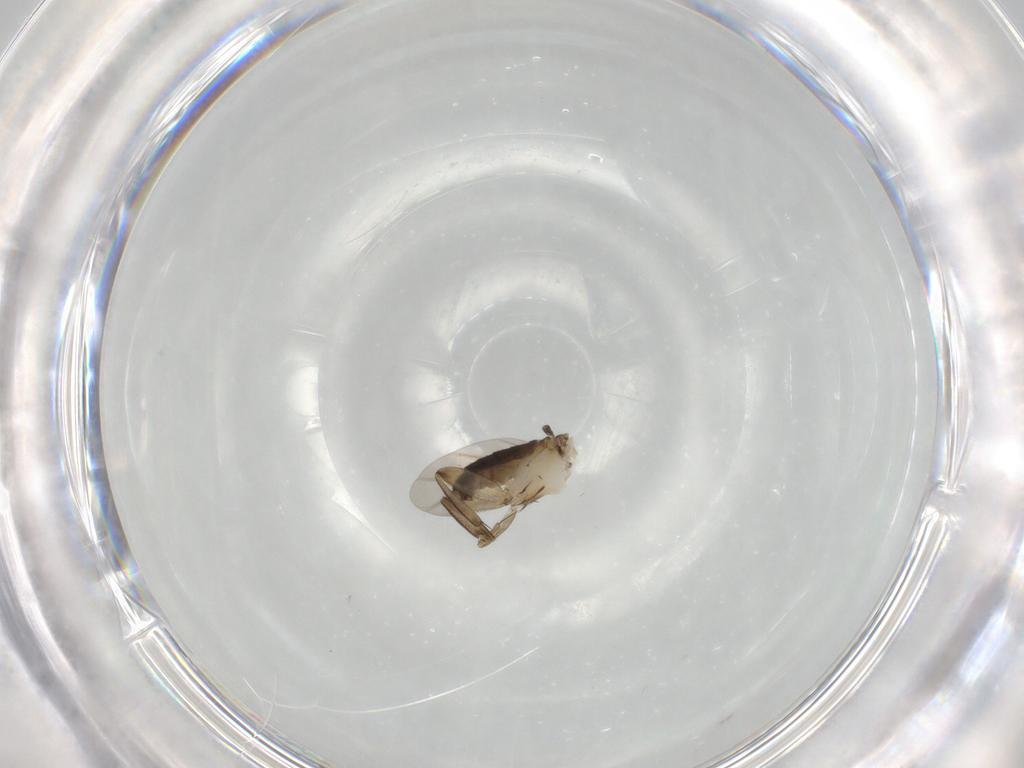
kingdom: Animalia
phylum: Arthropoda
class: Insecta
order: Diptera
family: Phoridae
